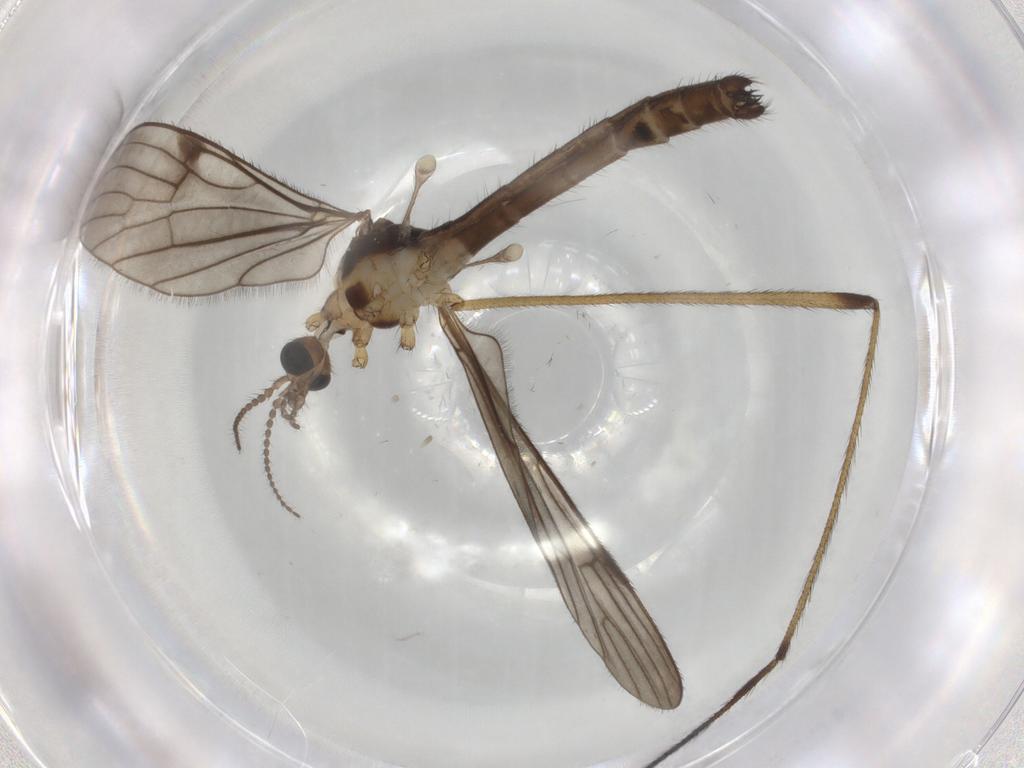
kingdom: Animalia
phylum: Arthropoda
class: Insecta
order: Diptera
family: Limoniidae
